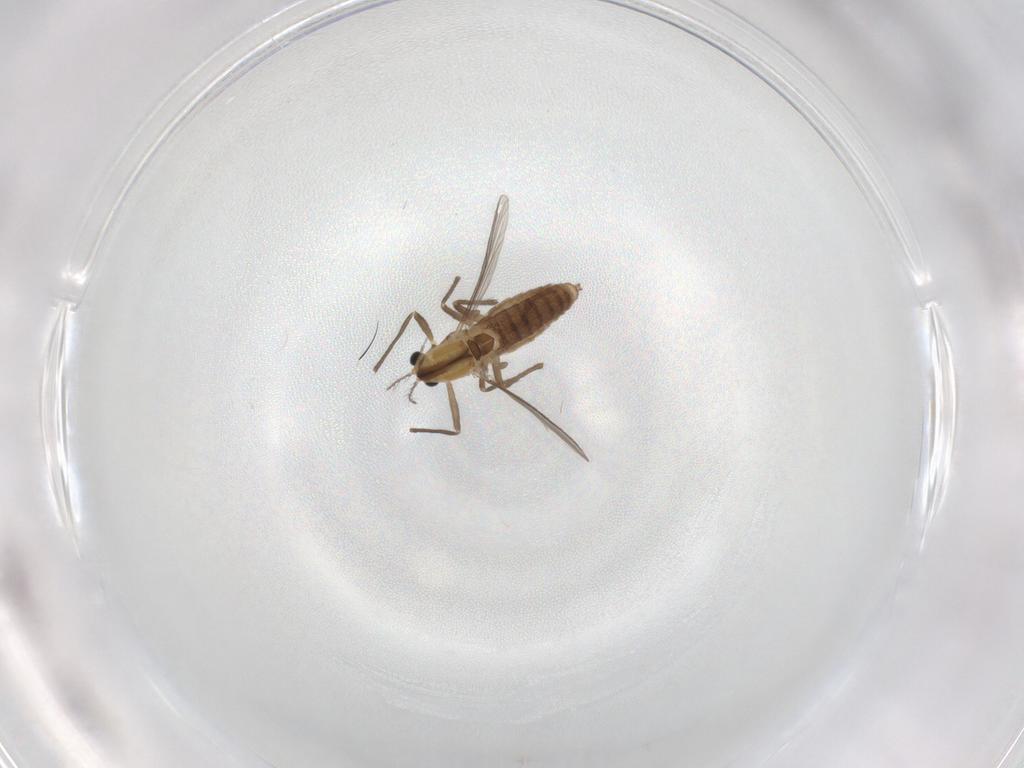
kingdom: Animalia
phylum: Arthropoda
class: Insecta
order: Diptera
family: Chironomidae
